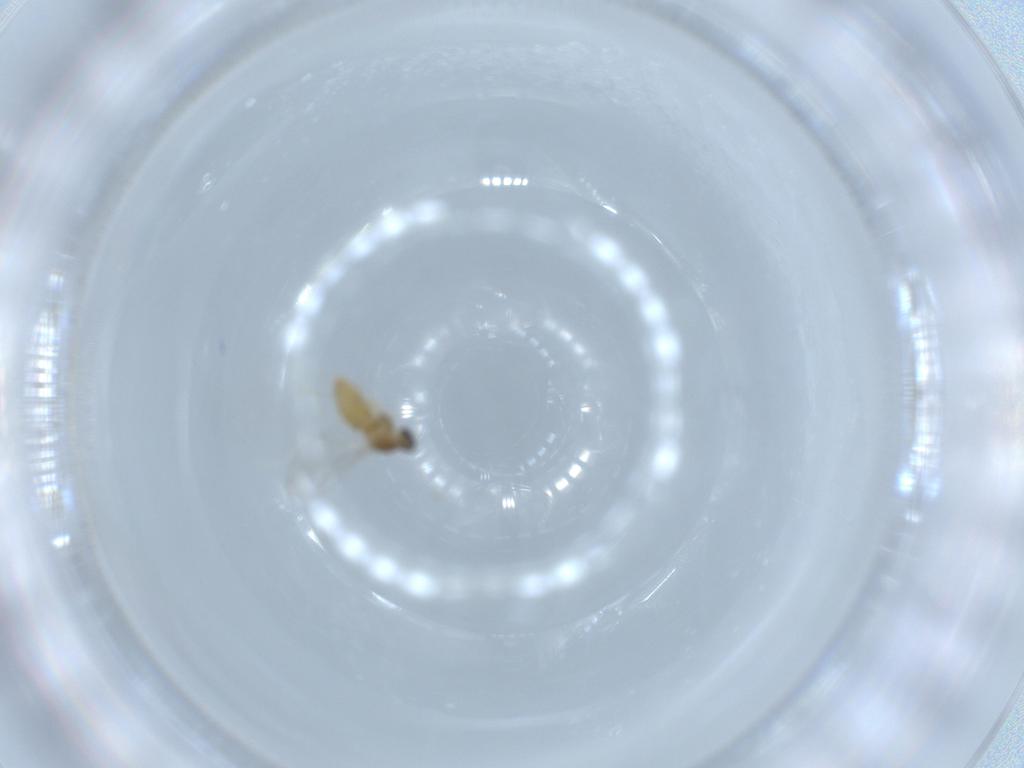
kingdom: Animalia
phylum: Arthropoda
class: Insecta
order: Diptera
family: Cecidomyiidae
